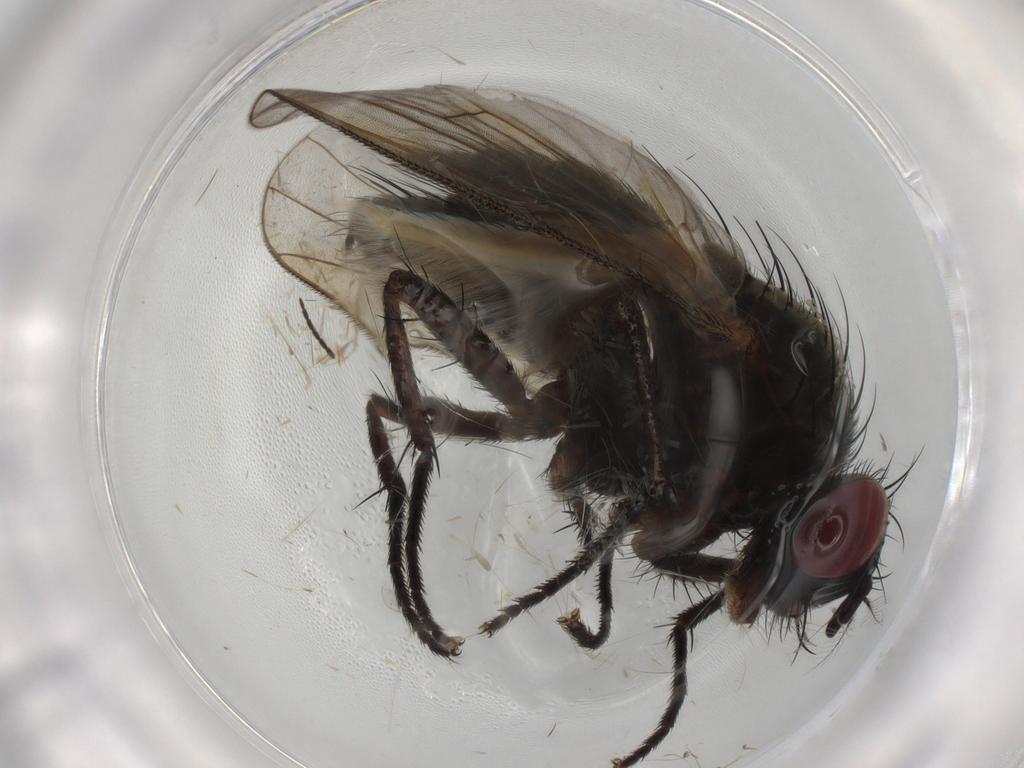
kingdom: Animalia
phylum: Arthropoda
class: Insecta
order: Diptera
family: Muscidae
